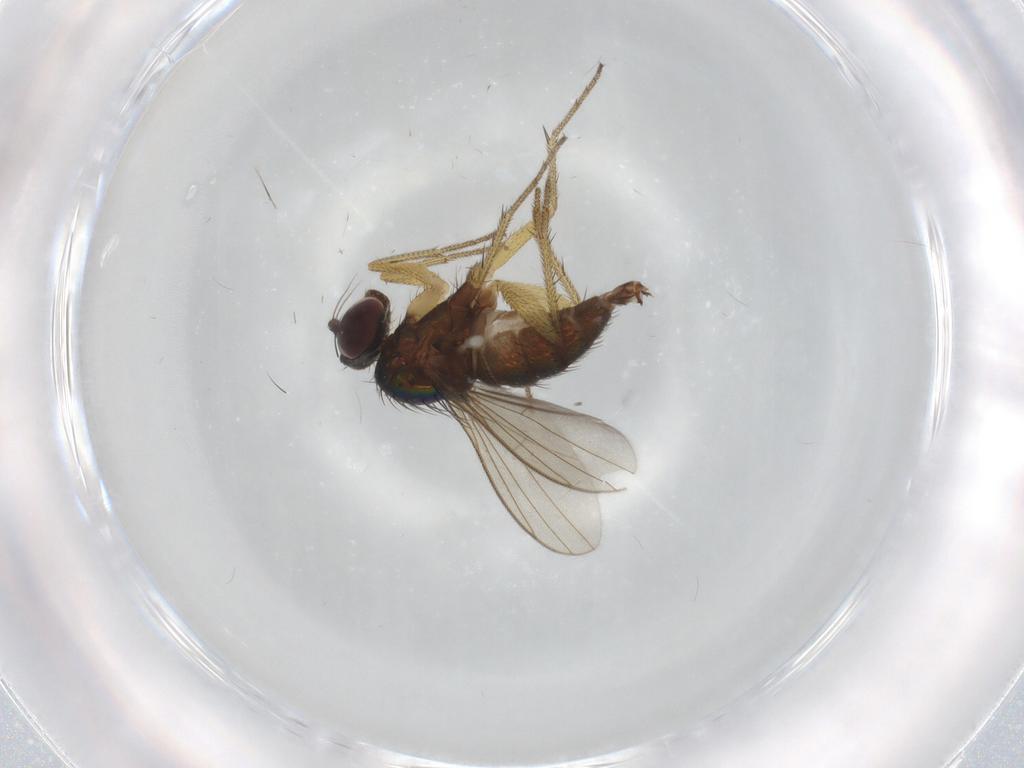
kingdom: Animalia
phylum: Arthropoda
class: Insecta
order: Diptera
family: Dolichopodidae
